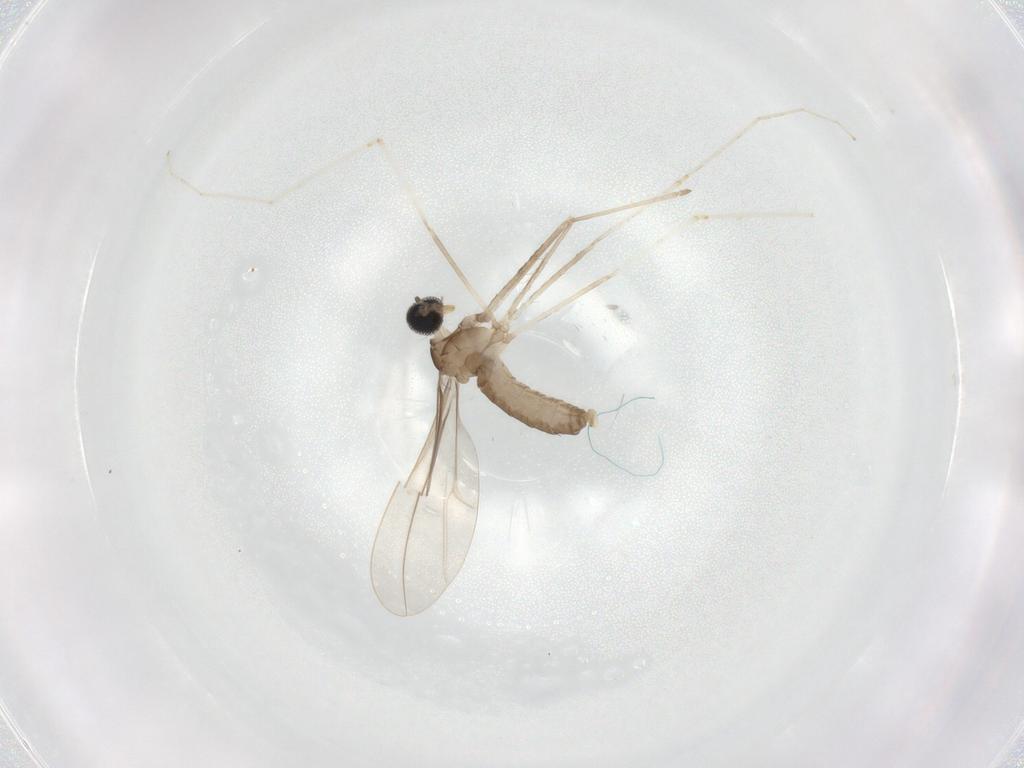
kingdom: Animalia
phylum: Arthropoda
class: Insecta
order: Diptera
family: Cecidomyiidae
